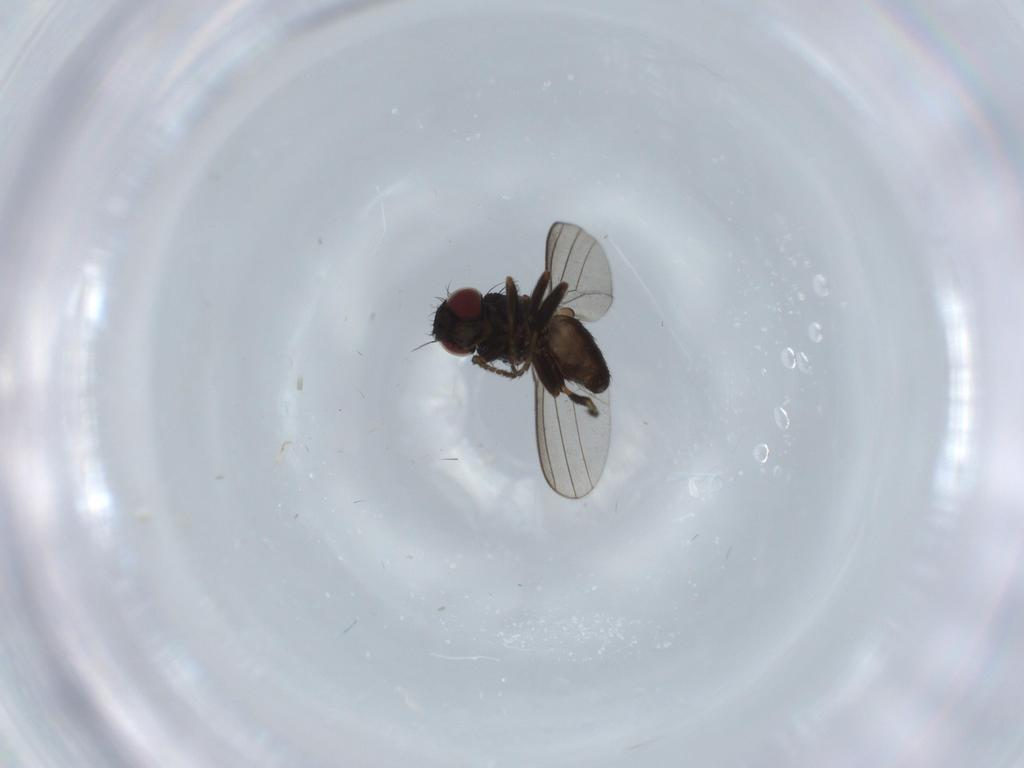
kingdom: Animalia
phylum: Arthropoda
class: Insecta
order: Diptera
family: Milichiidae
